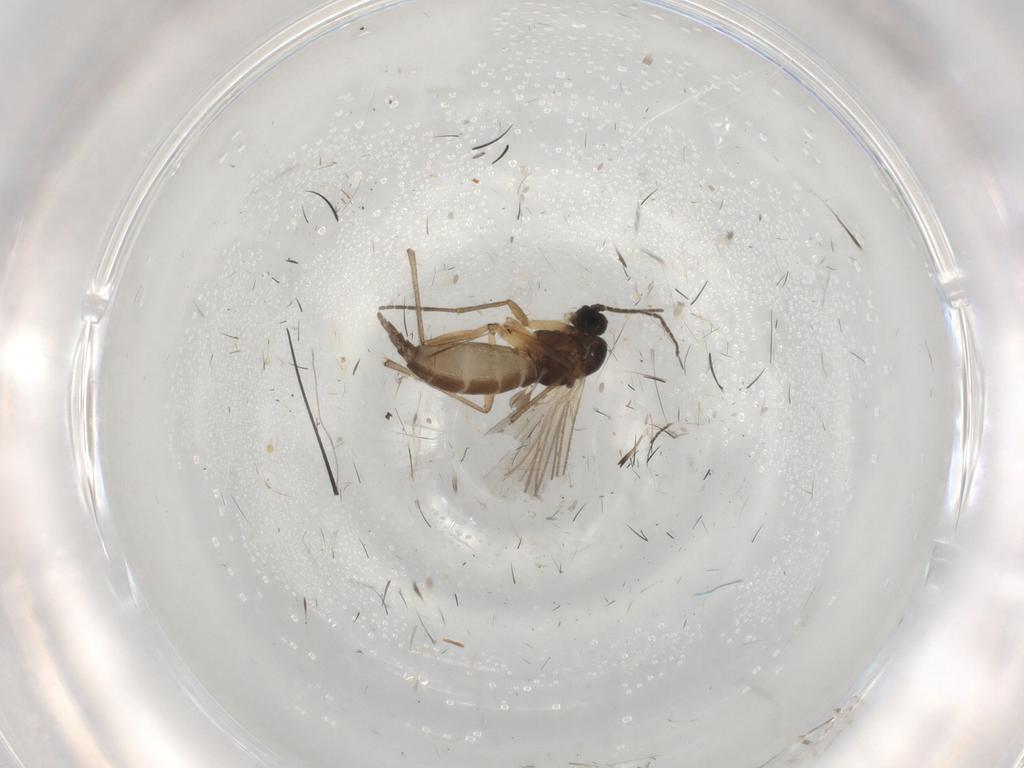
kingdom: Animalia
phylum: Arthropoda
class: Insecta
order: Diptera
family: Sciaridae
